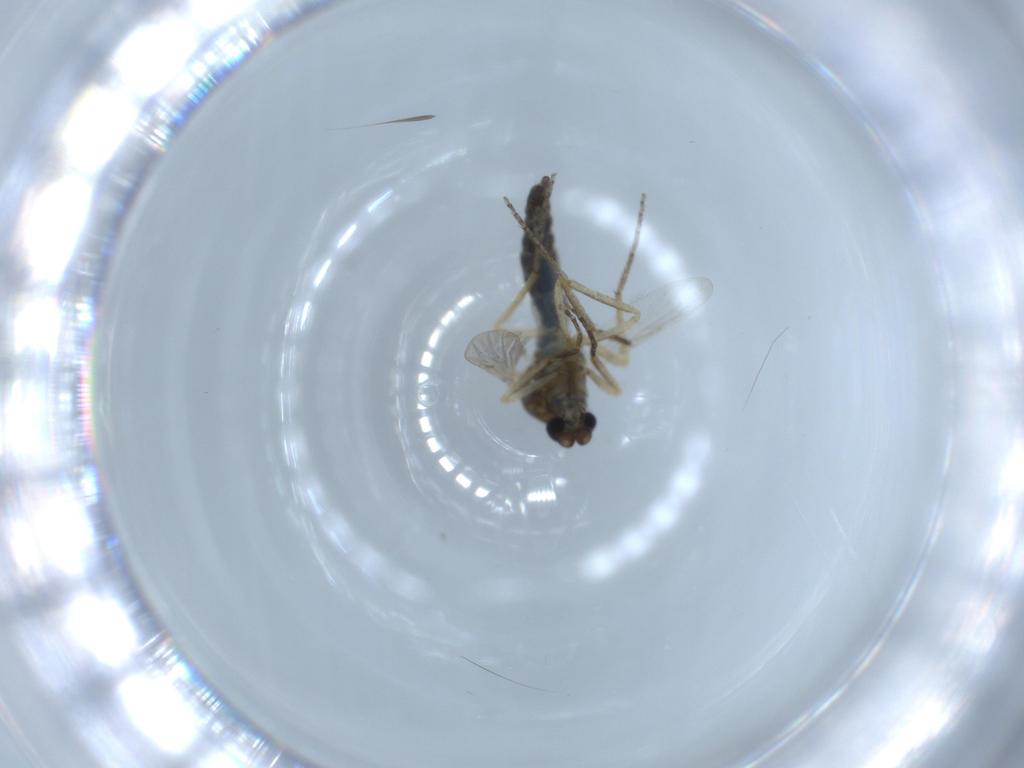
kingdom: Animalia
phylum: Arthropoda
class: Insecta
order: Diptera
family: Ceratopogonidae
